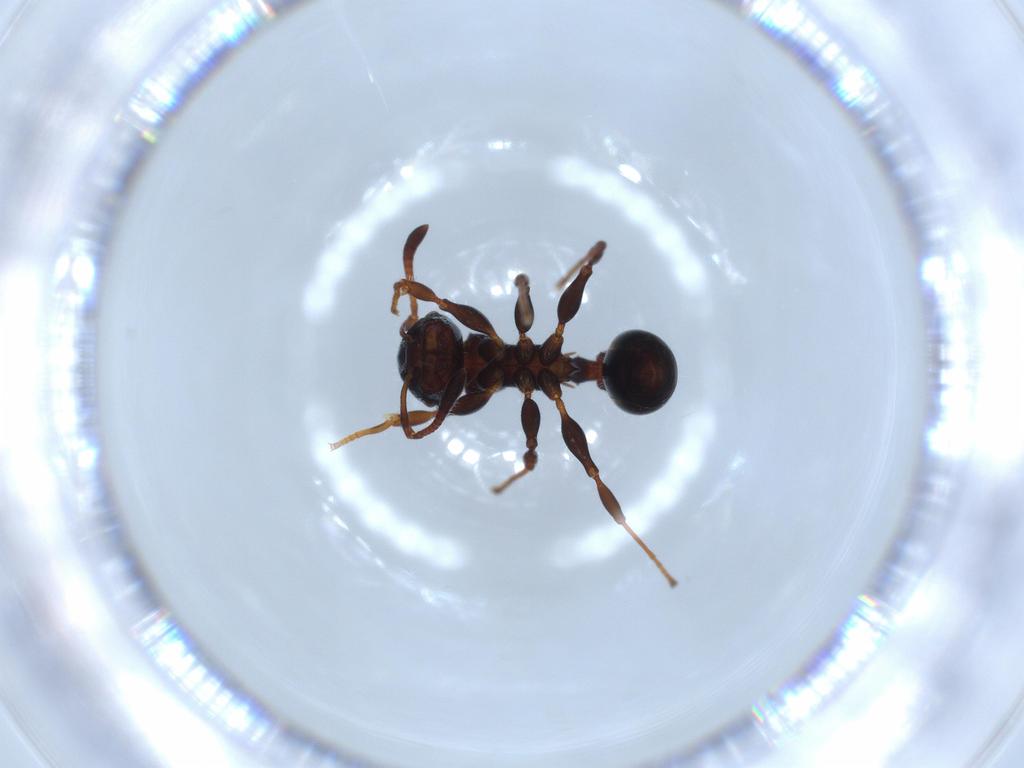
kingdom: Animalia
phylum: Arthropoda
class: Insecta
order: Hymenoptera
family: Formicidae
